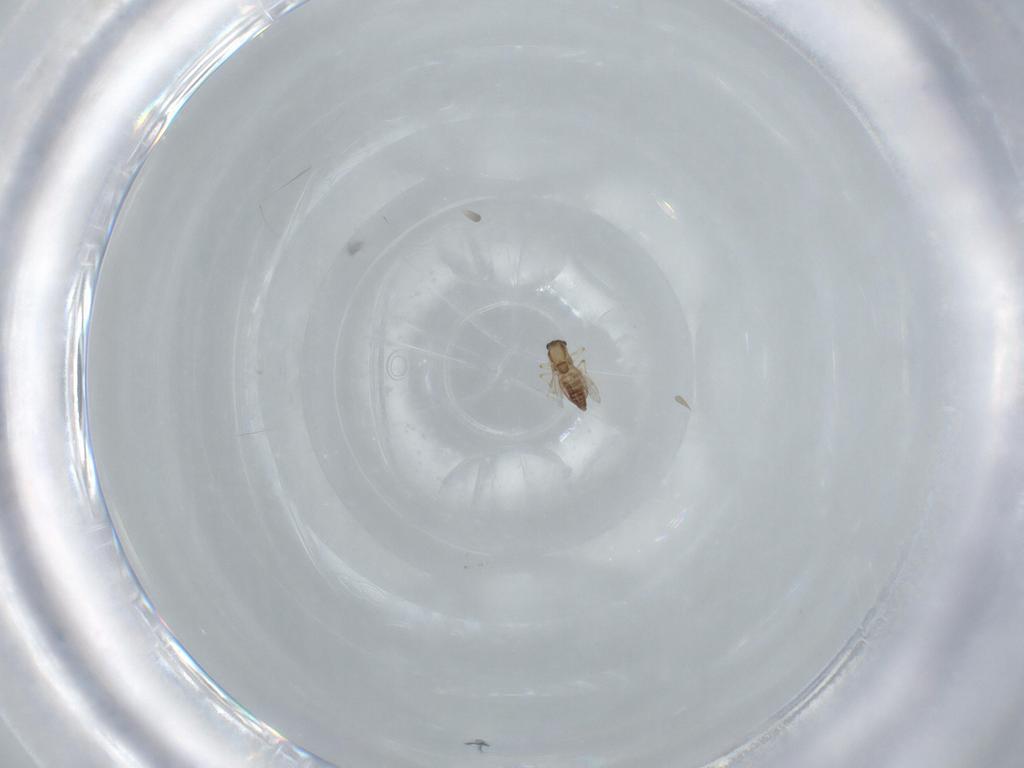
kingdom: Animalia
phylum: Arthropoda
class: Insecta
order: Diptera
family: Chironomidae
